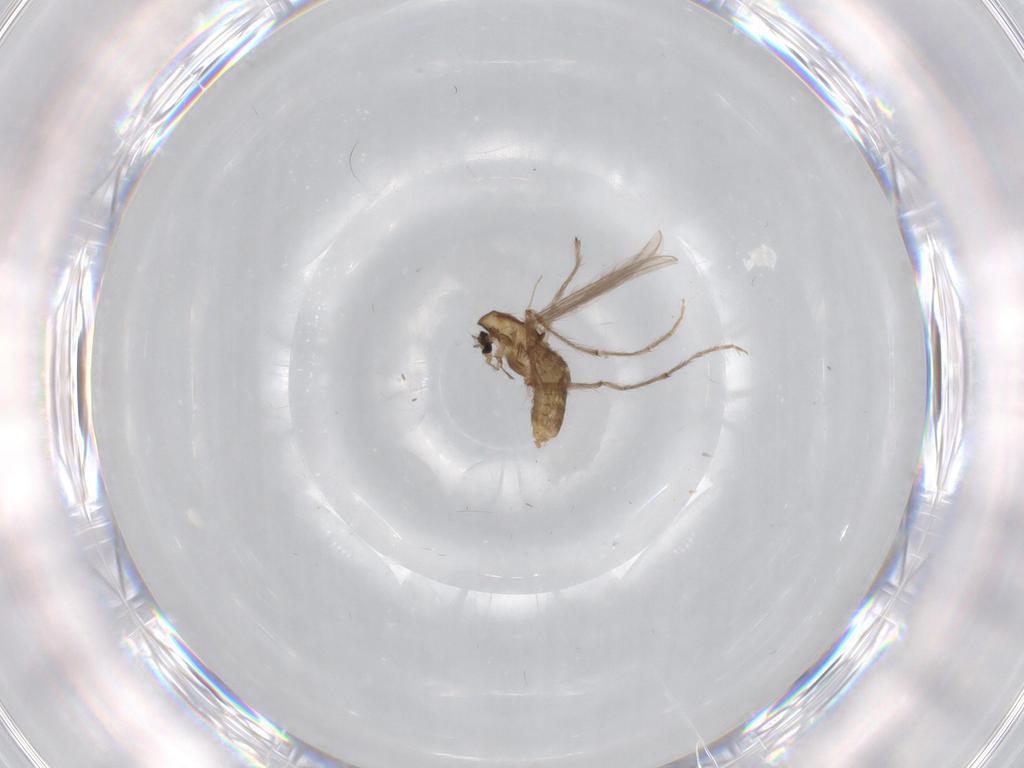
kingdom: Animalia
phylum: Arthropoda
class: Insecta
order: Diptera
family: Chironomidae
